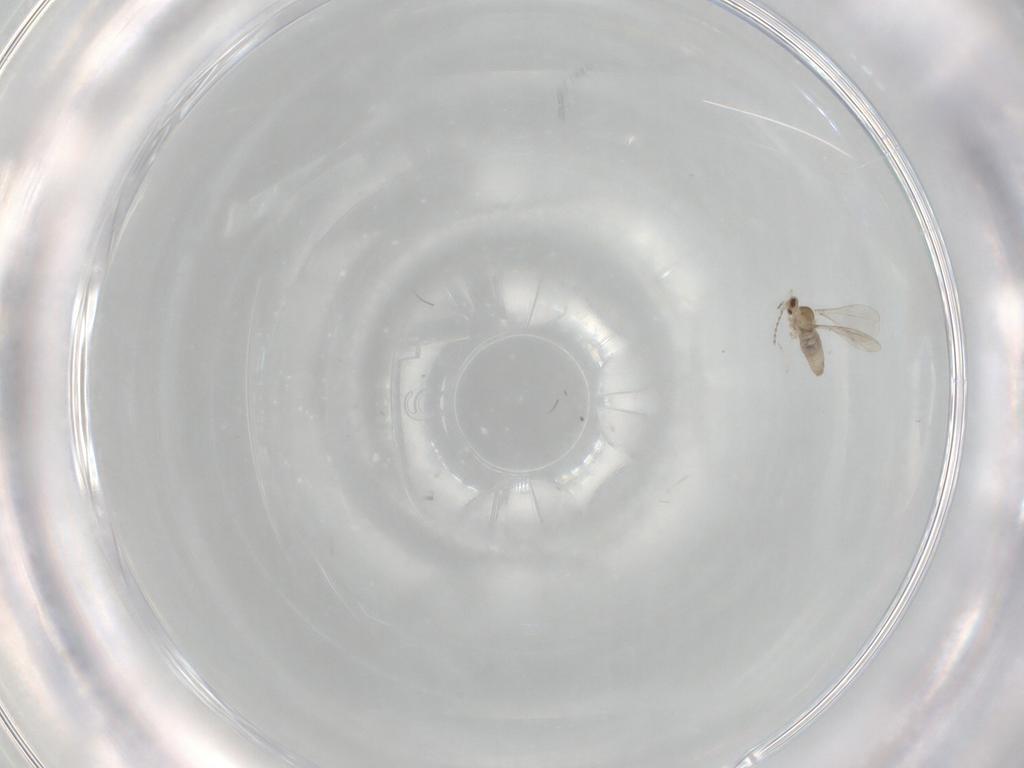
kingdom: Animalia
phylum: Arthropoda
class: Insecta
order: Diptera
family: Cecidomyiidae
